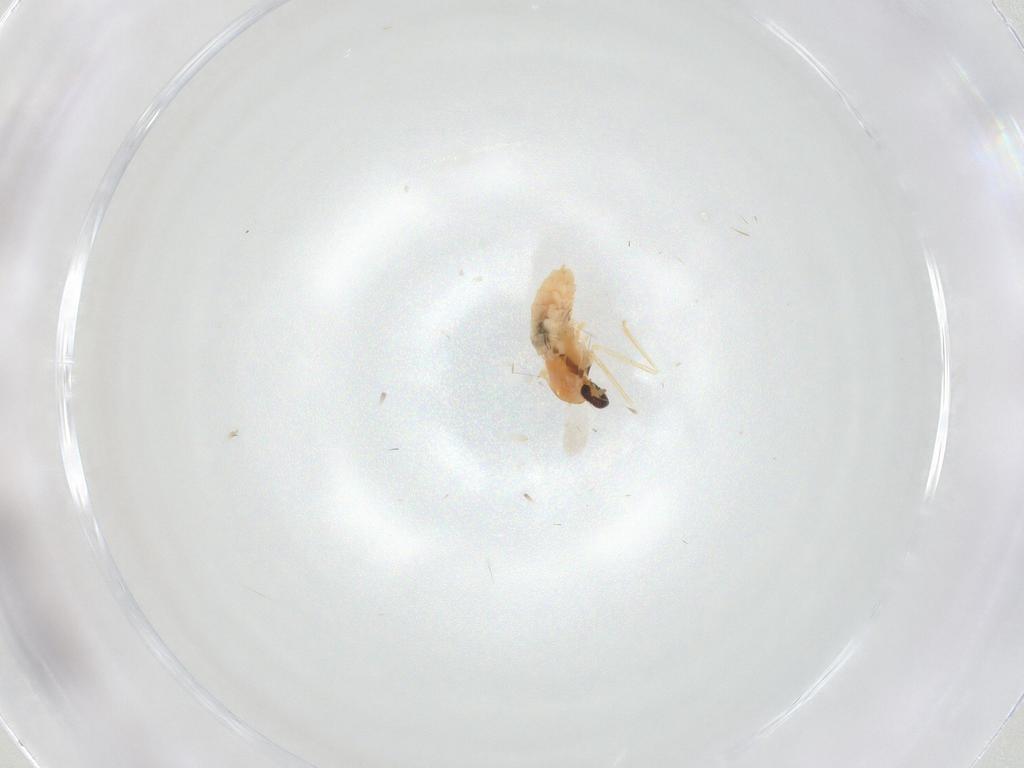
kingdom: Animalia
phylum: Arthropoda
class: Insecta
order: Diptera
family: Cecidomyiidae
